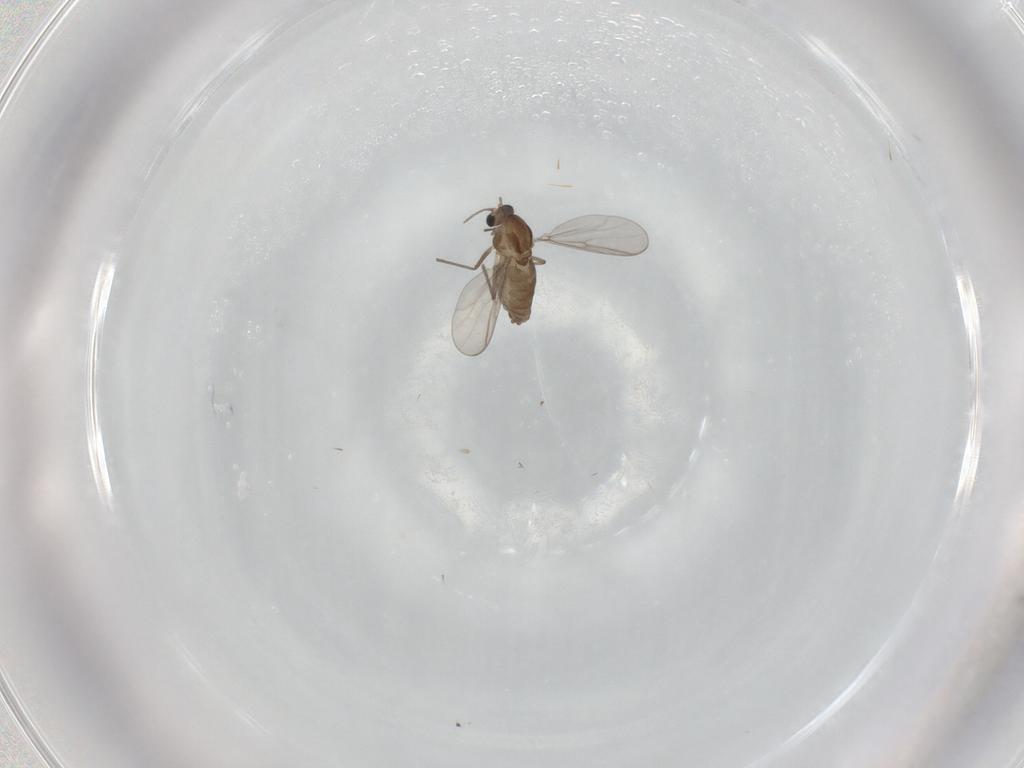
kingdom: Animalia
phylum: Arthropoda
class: Insecta
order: Diptera
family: Chironomidae
